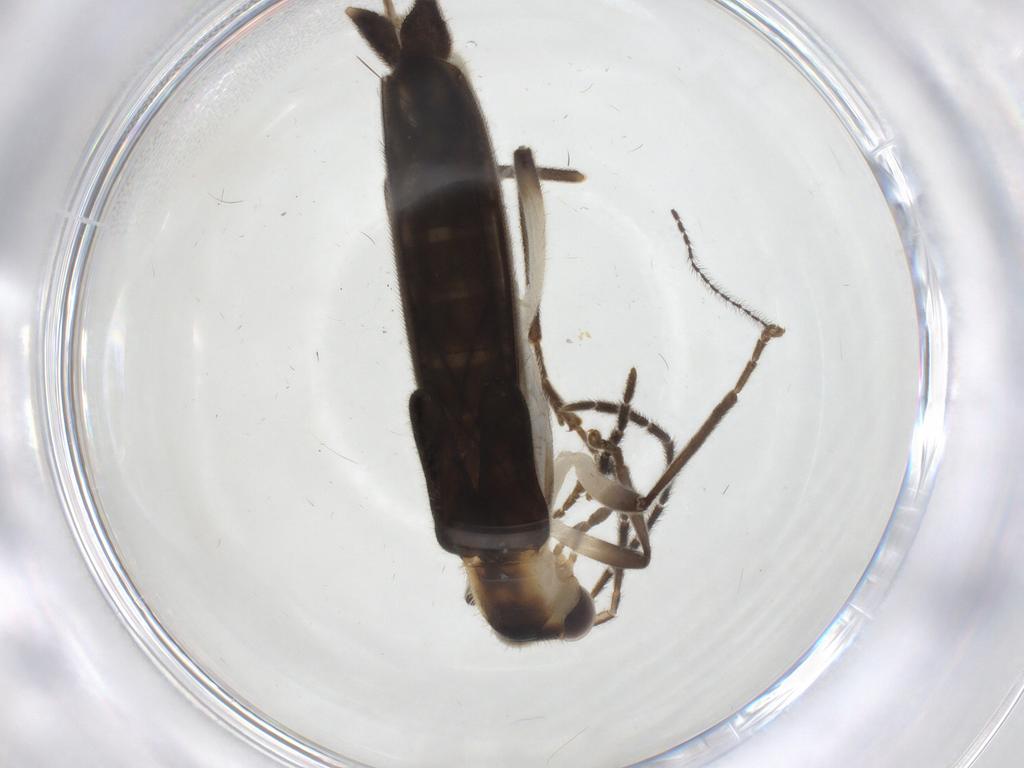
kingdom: Animalia
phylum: Arthropoda
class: Insecta
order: Coleoptera
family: Cantharidae
